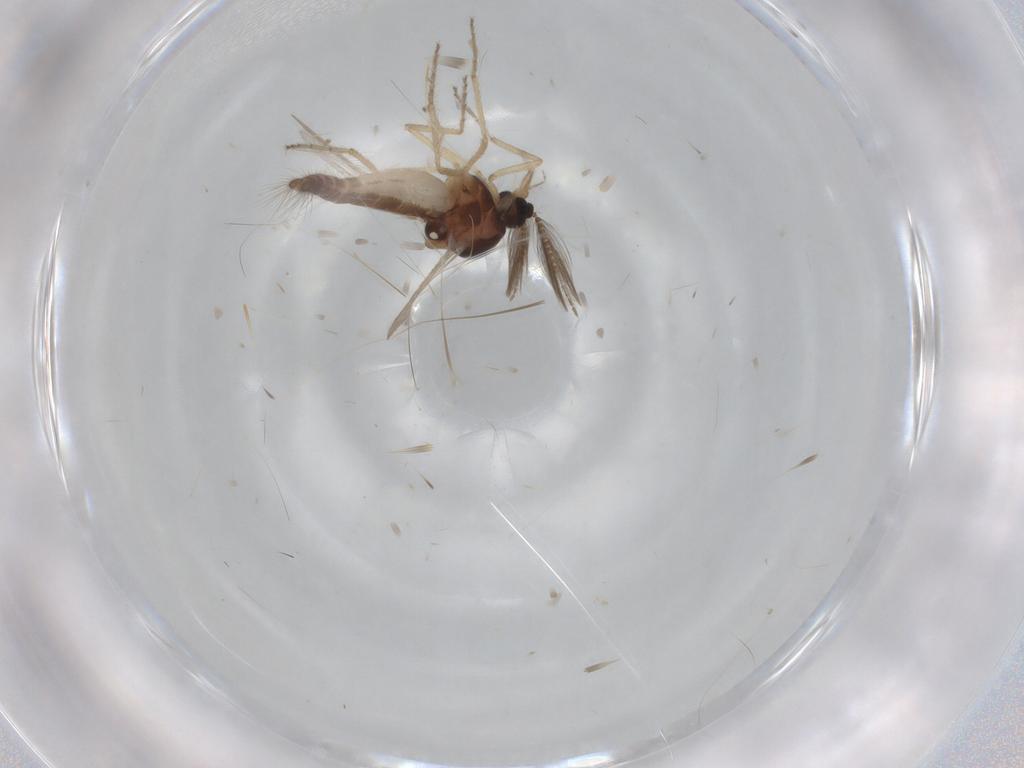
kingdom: Animalia
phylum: Arthropoda
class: Insecta
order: Diptera
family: Ceratopogonidae
